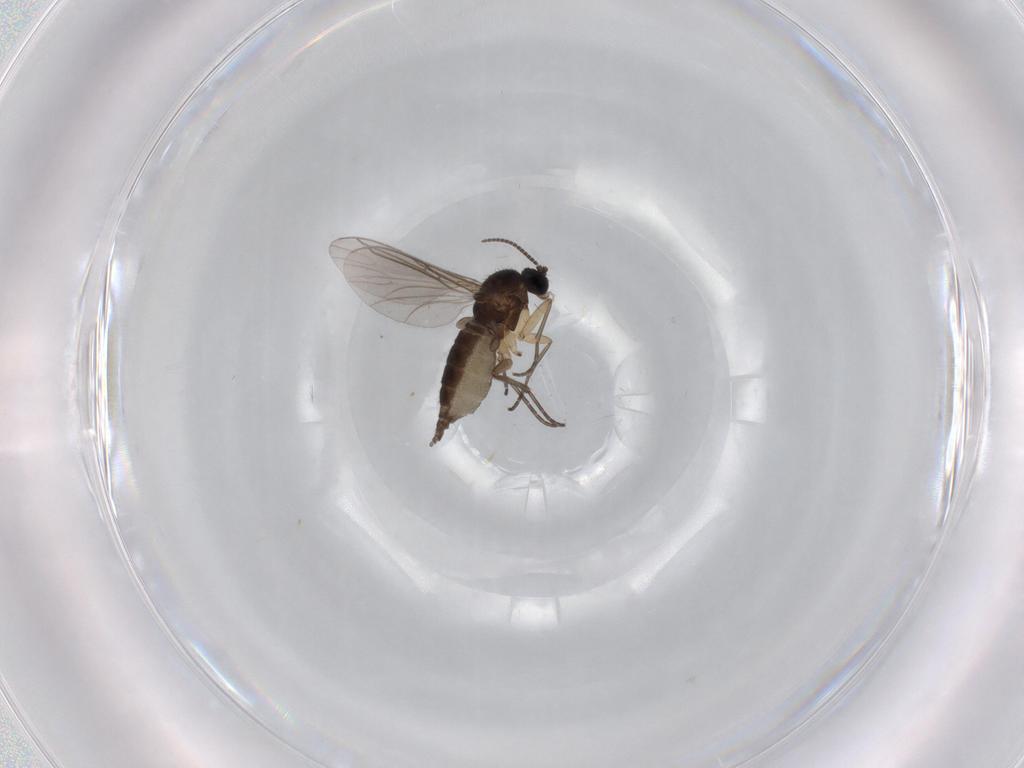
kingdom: Animalia
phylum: Arthropoda
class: Insecta
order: Diptera
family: Sciaridae
